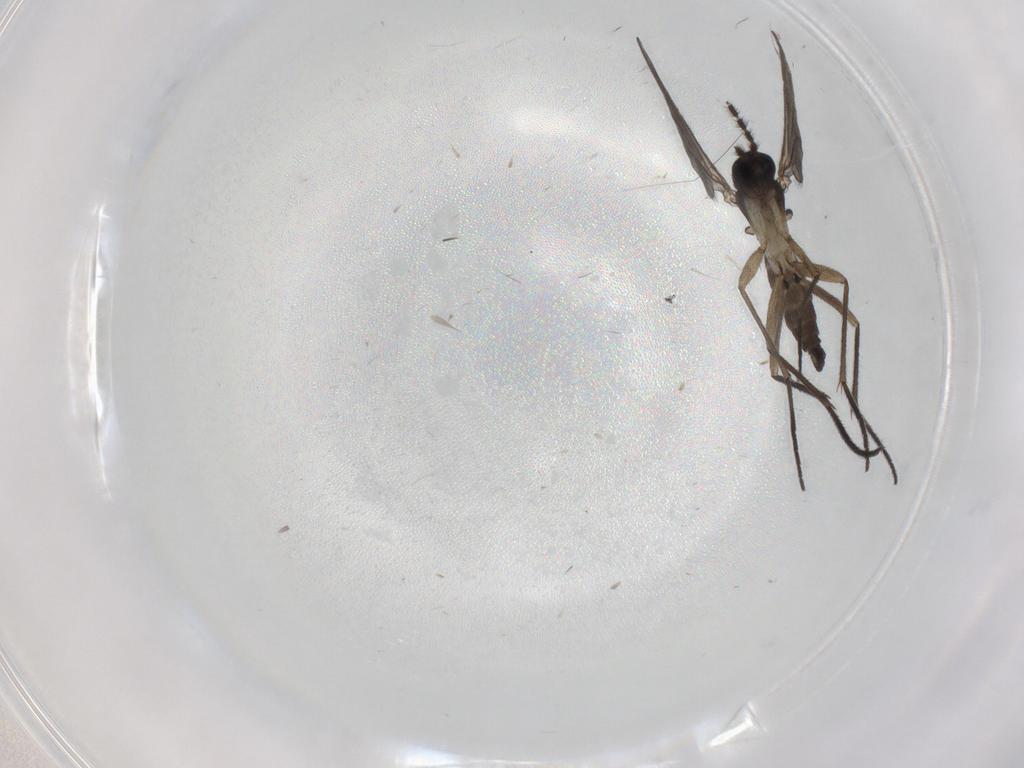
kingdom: Animalia
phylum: Arthropoda
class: Insecta
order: Diptera
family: Sciaridae
